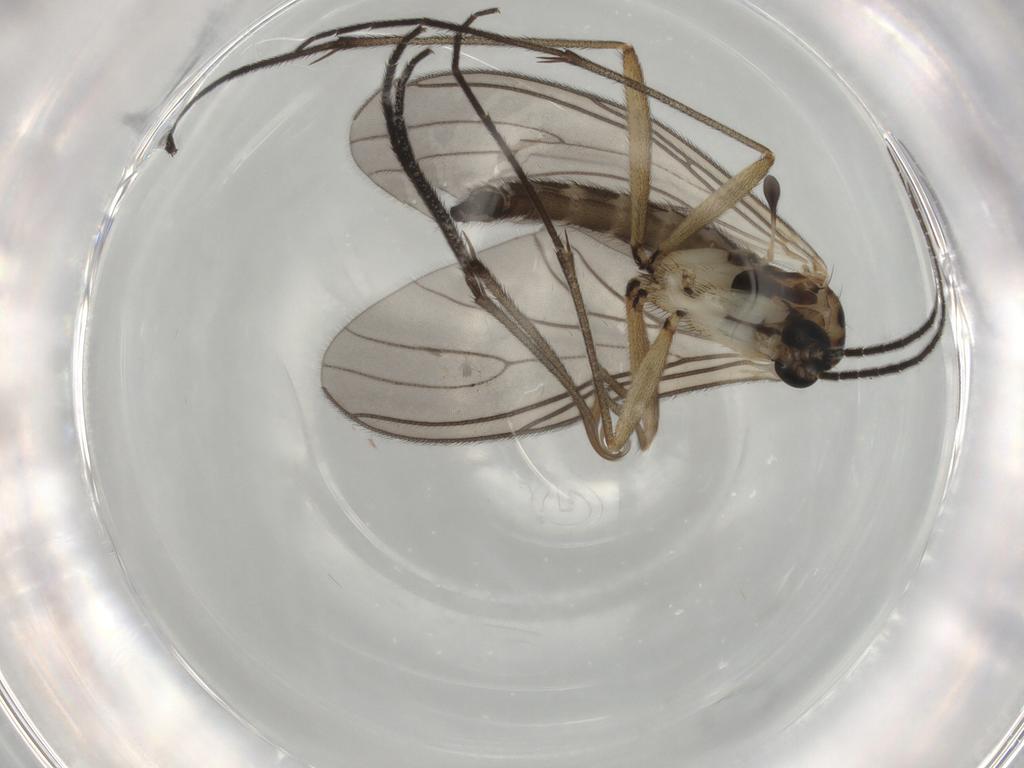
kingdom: Animalia
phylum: Arthropoda
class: Insecta
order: Diptera
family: Sciaridae
